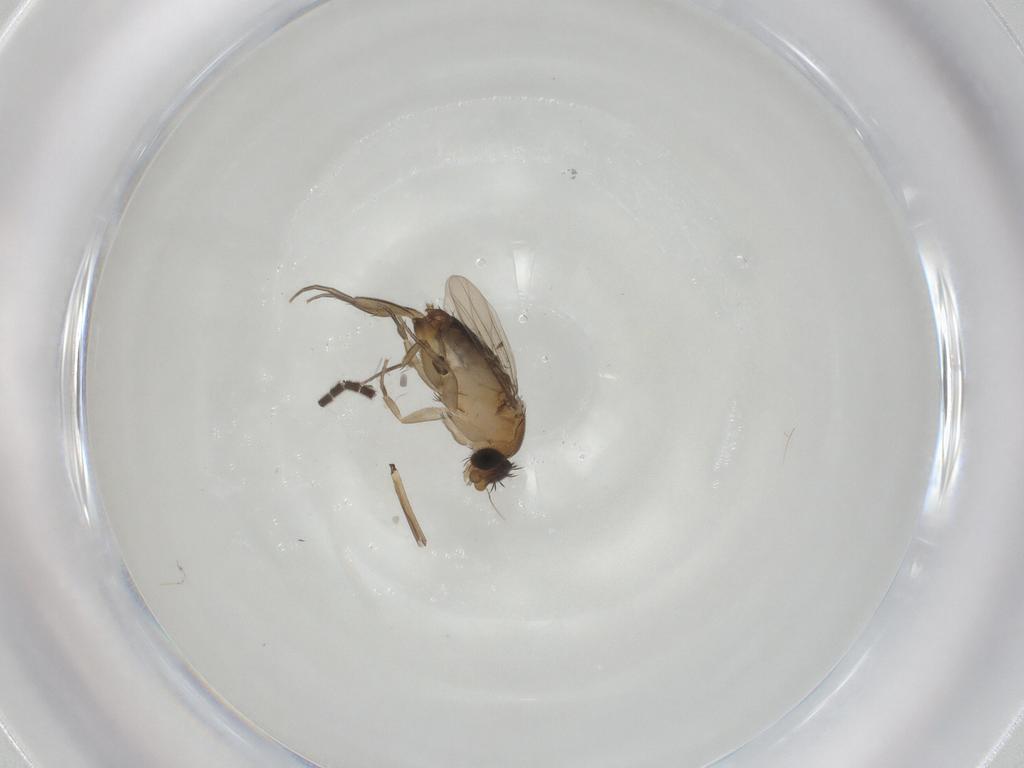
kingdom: Animalia
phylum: Arthropoda
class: Insecta
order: Diptera
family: Phoridae
